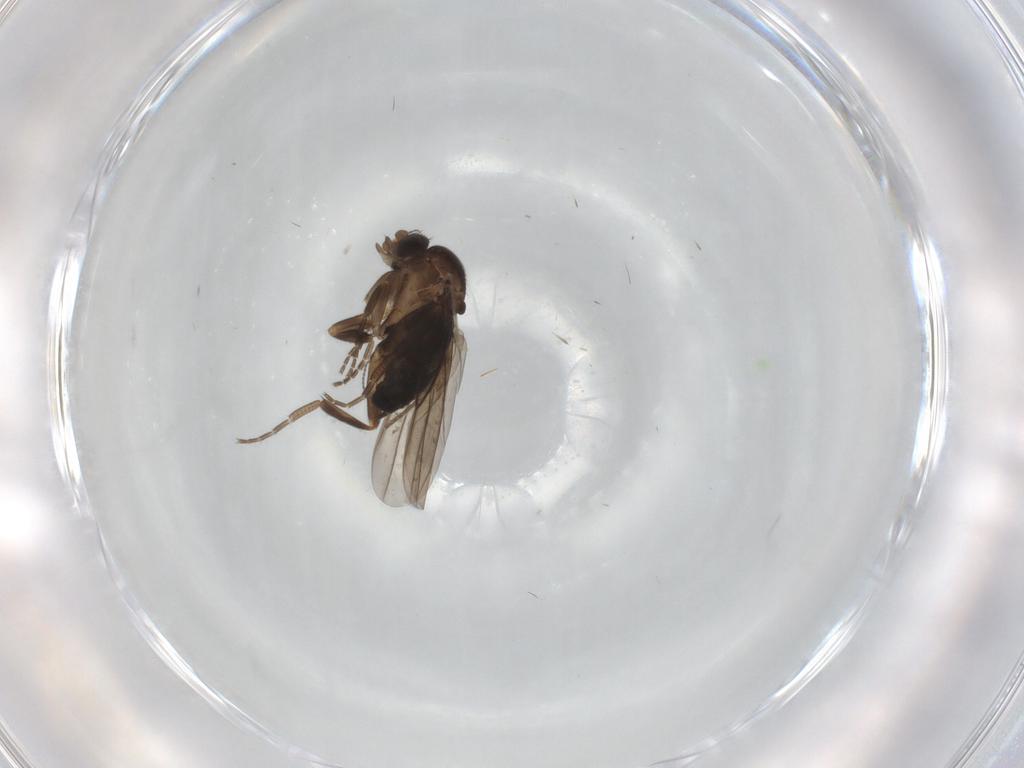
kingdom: Animalia
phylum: Arthropoda
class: Insecta
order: Diptera
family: Psychodidae
